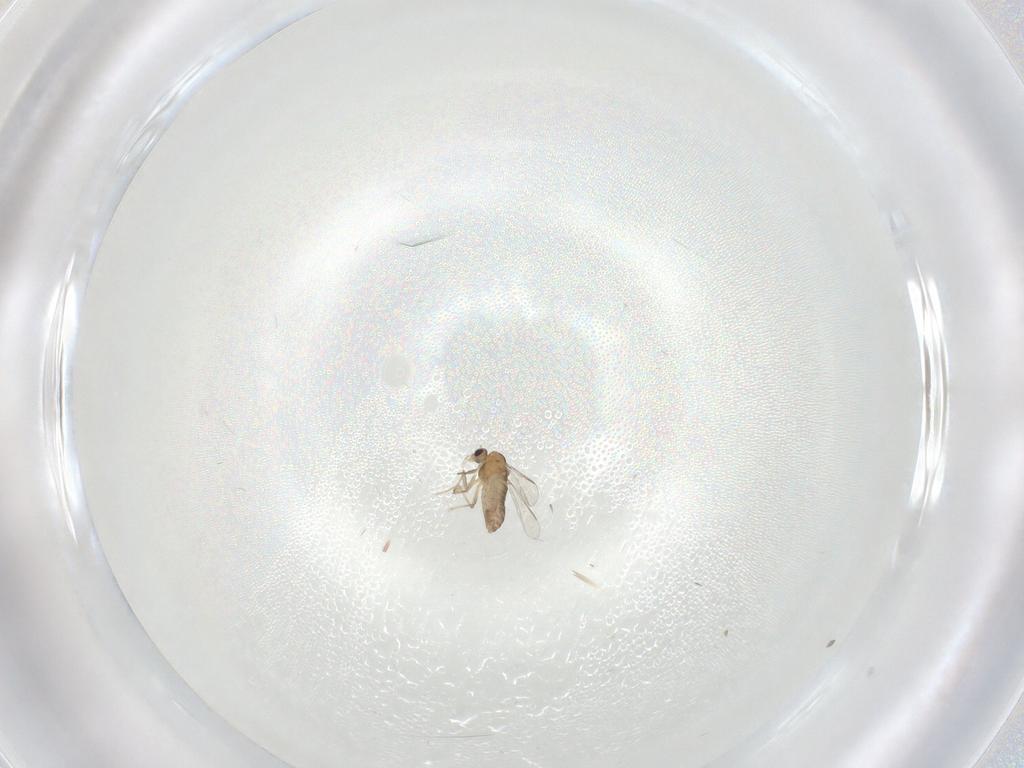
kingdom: Animalia
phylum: Arthropoda
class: Insecta
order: Diptera
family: Chironomidae
